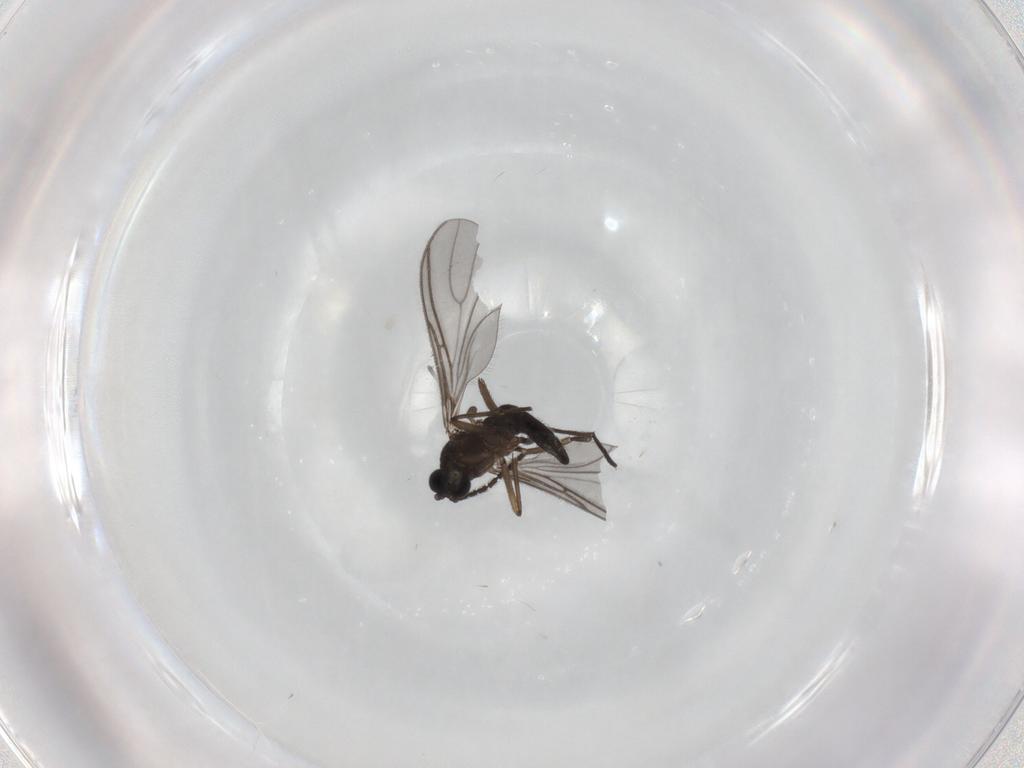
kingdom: Animalia
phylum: Arthropoda
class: Insecta
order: Diptera
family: Sciaridae
